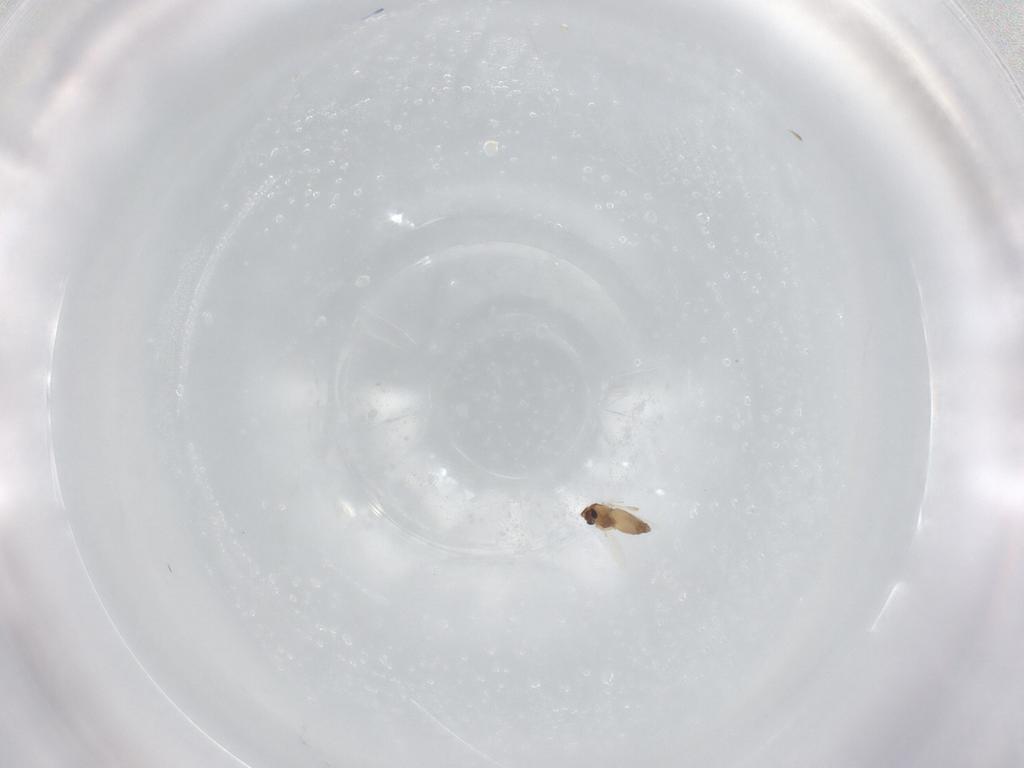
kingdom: Animalia
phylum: Arthropoda
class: Insecta
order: Diptera
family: Chironomidae
